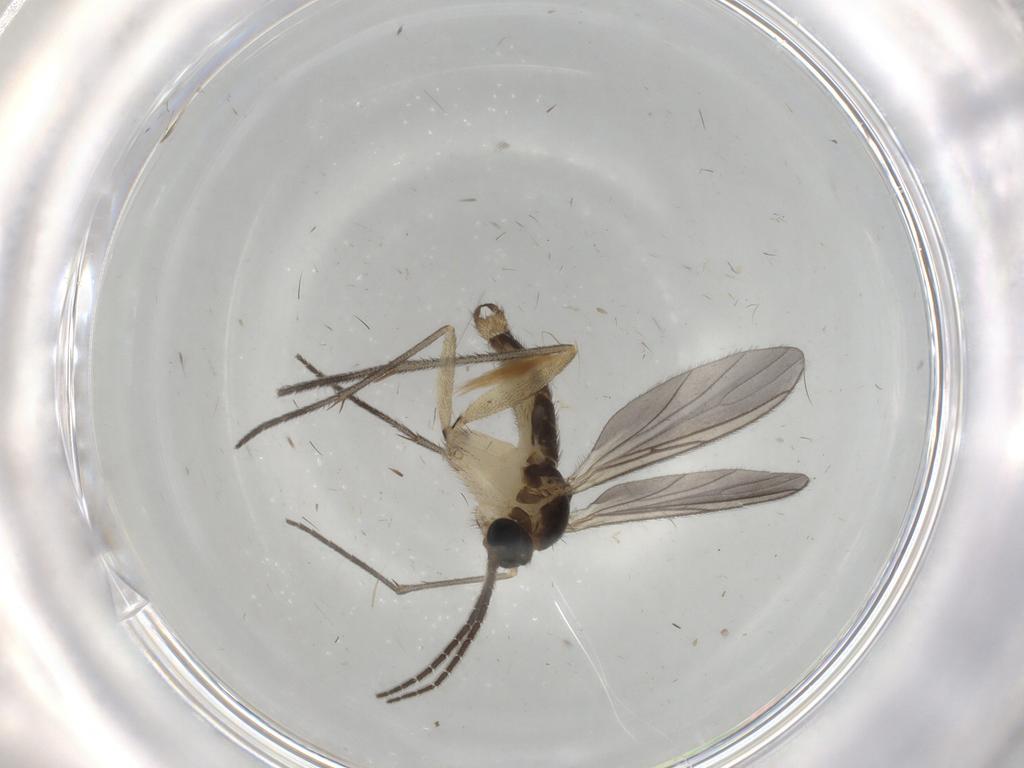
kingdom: Animalia
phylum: Arthropoda
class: Insecta
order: Diptera
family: Sciaridae
